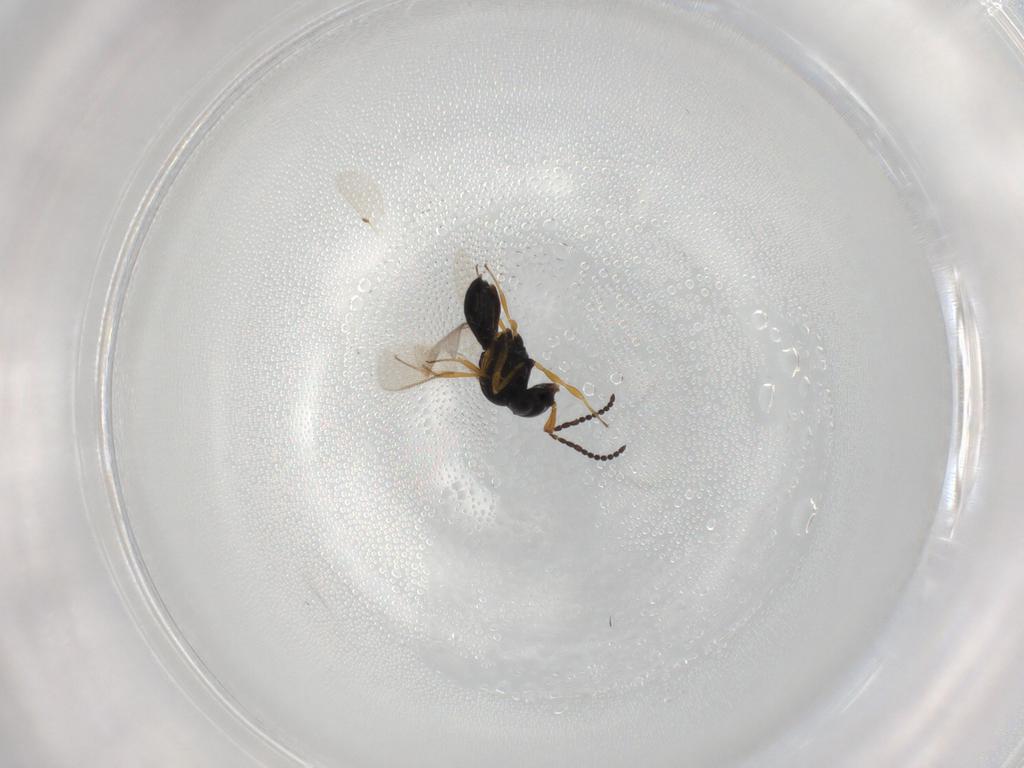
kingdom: Animalia
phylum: Arthropoda
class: Insecta
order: Hymenoptera
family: Scelionidae
